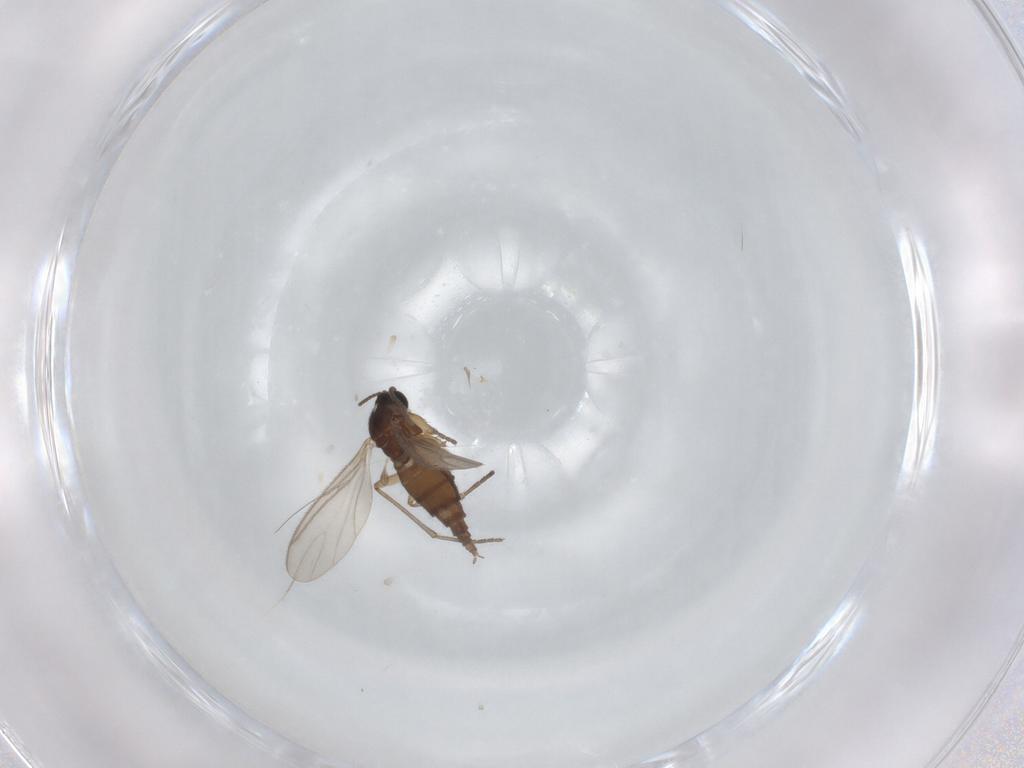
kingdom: Animalia
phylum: Arthropoda
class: Insecta
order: Diptera
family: Sciaridae
